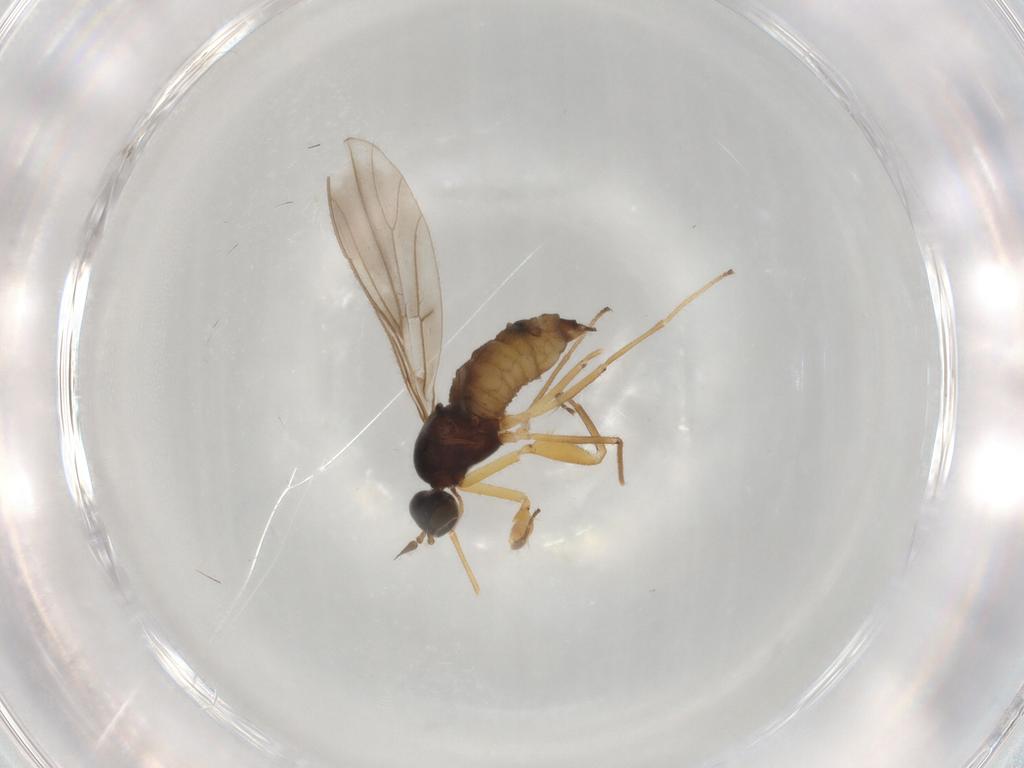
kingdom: Animalia
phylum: Arthropoda
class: Insecta
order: Diptera
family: Empididae
